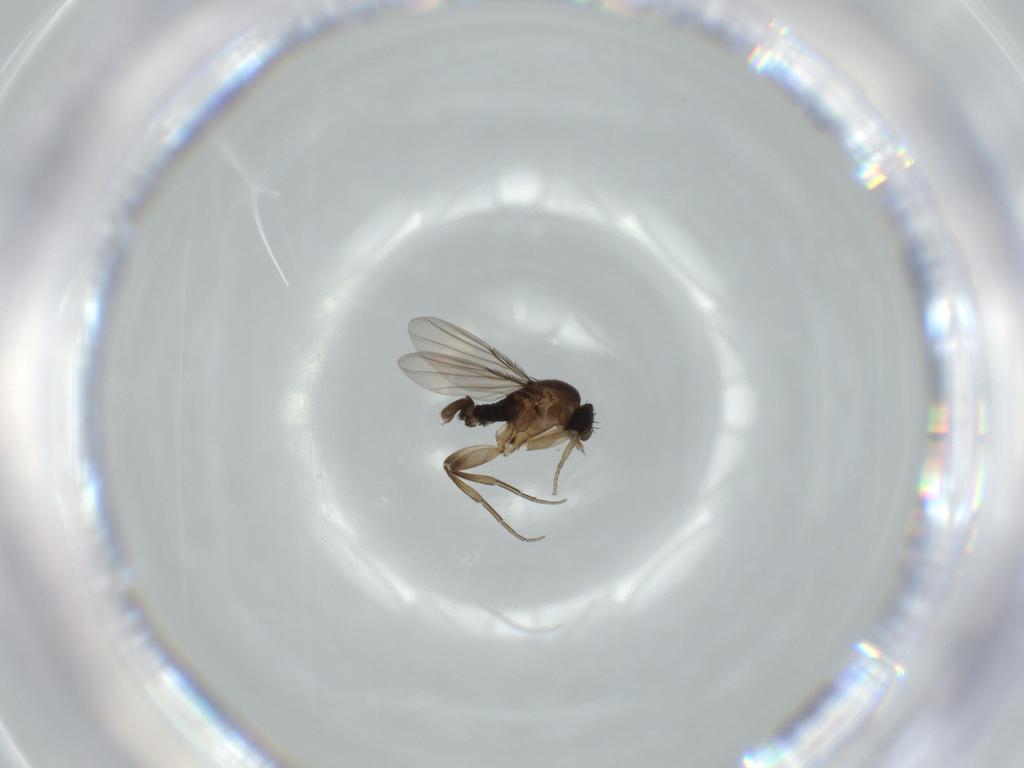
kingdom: Animalia
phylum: Arthropoda
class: Insecta
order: Diptera
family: Phoridae
